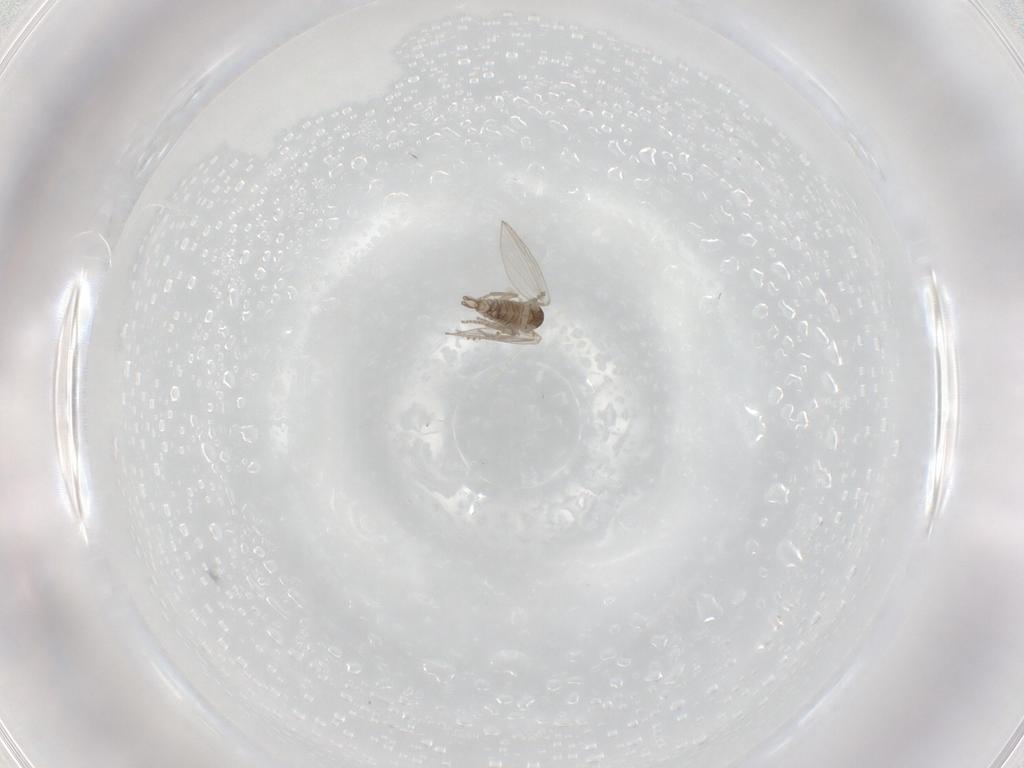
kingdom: Animalia
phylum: Arthropoda
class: Insecta
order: Diptera
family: Psychodidae
